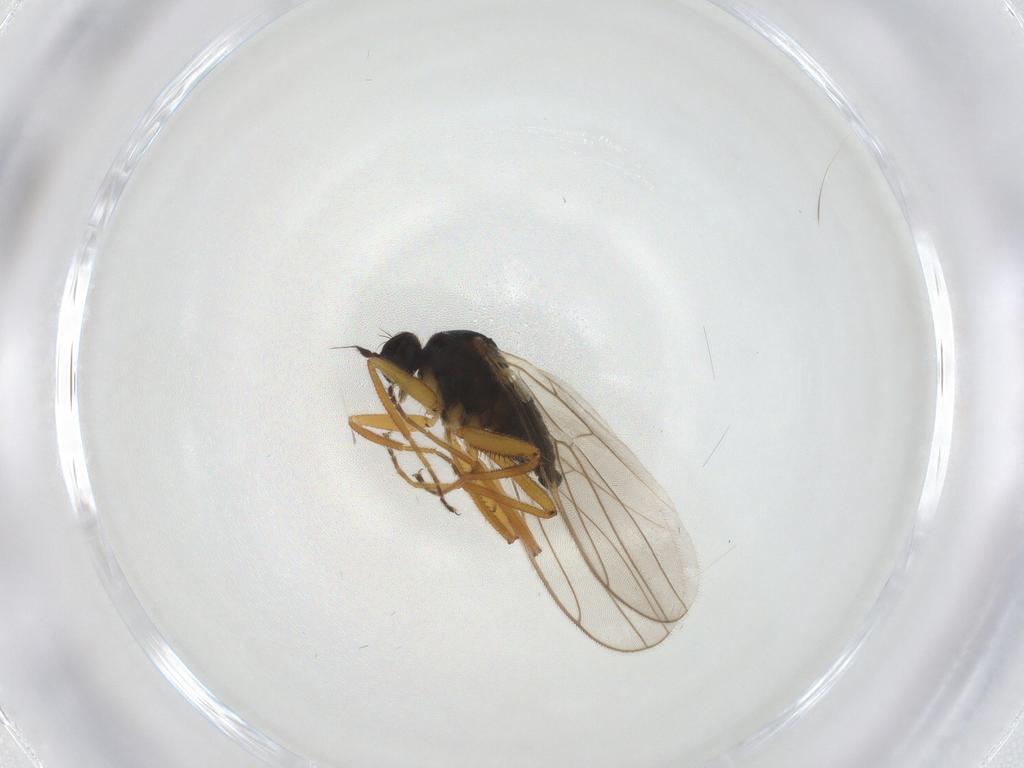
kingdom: Animalia
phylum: Arthropoda
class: Insecta
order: Diptera
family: Hybotidae
